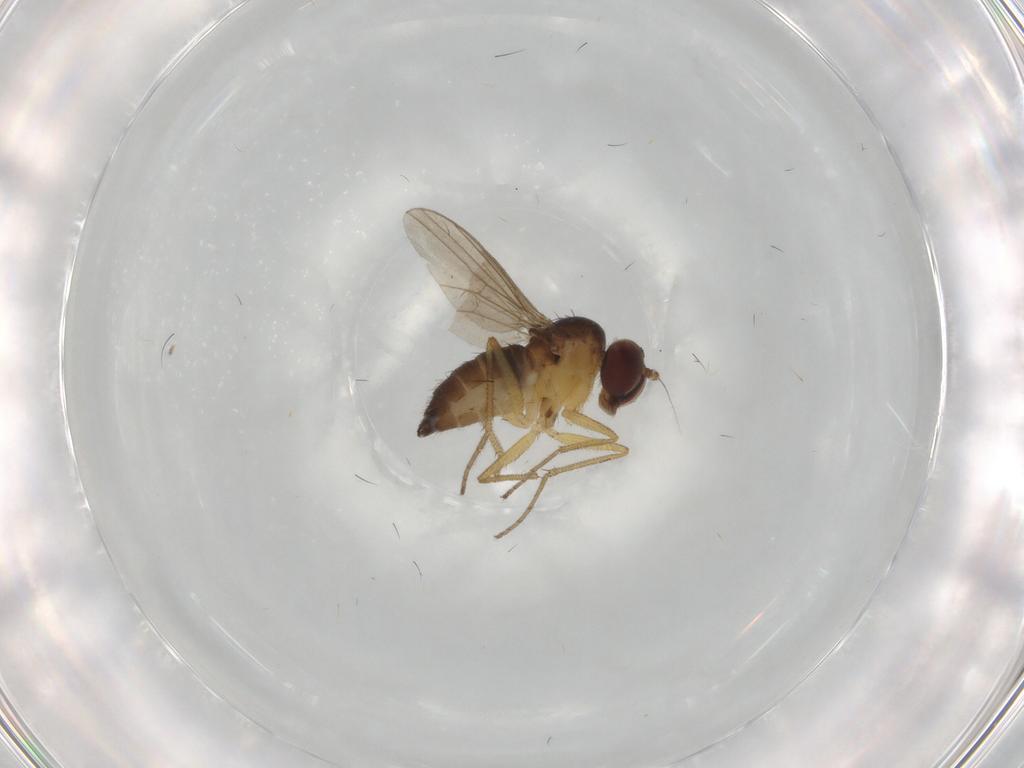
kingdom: Animalia
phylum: Arthropoda
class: Insecta
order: Diptera
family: Dolichopodidae
